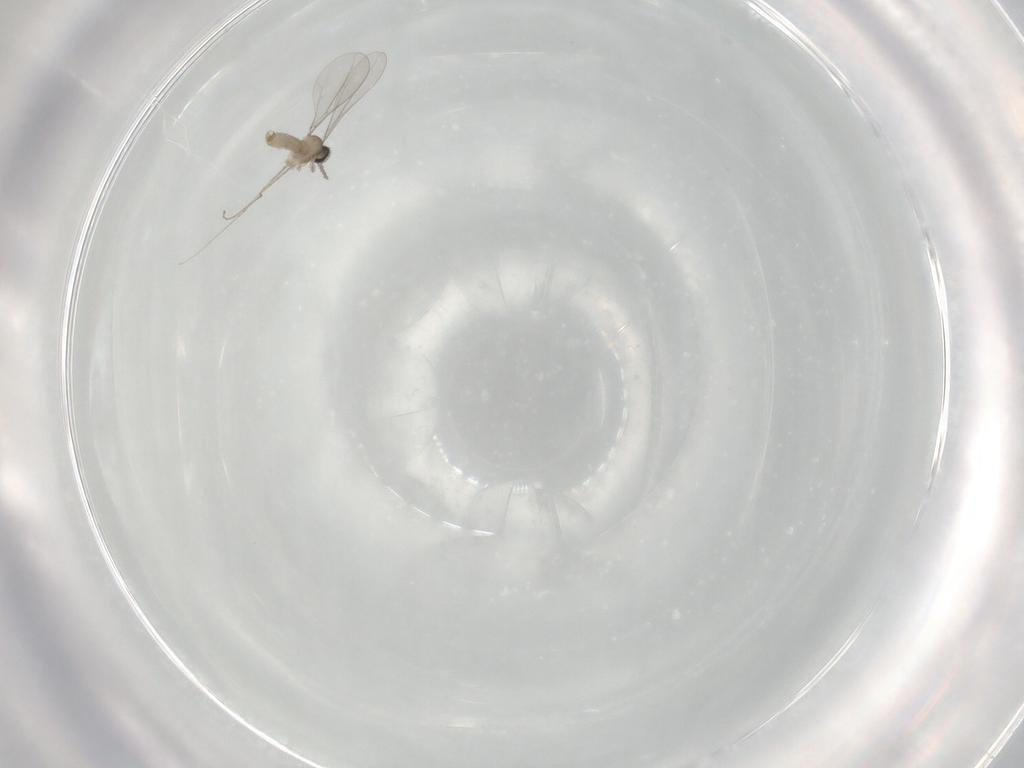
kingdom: Animalia
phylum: Arthropoda
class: Insecta
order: Diptera
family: Cecidomyiidae
